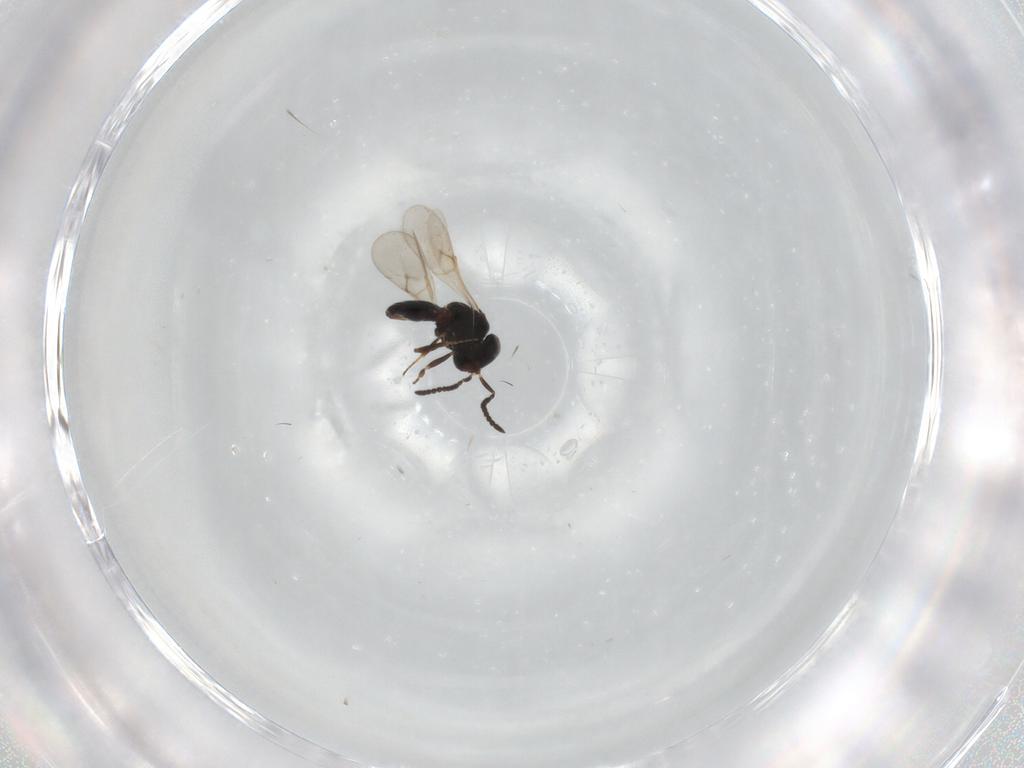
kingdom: Animalia
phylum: Arthropoda
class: Insecta
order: Hymenoptera
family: Scelionidae
